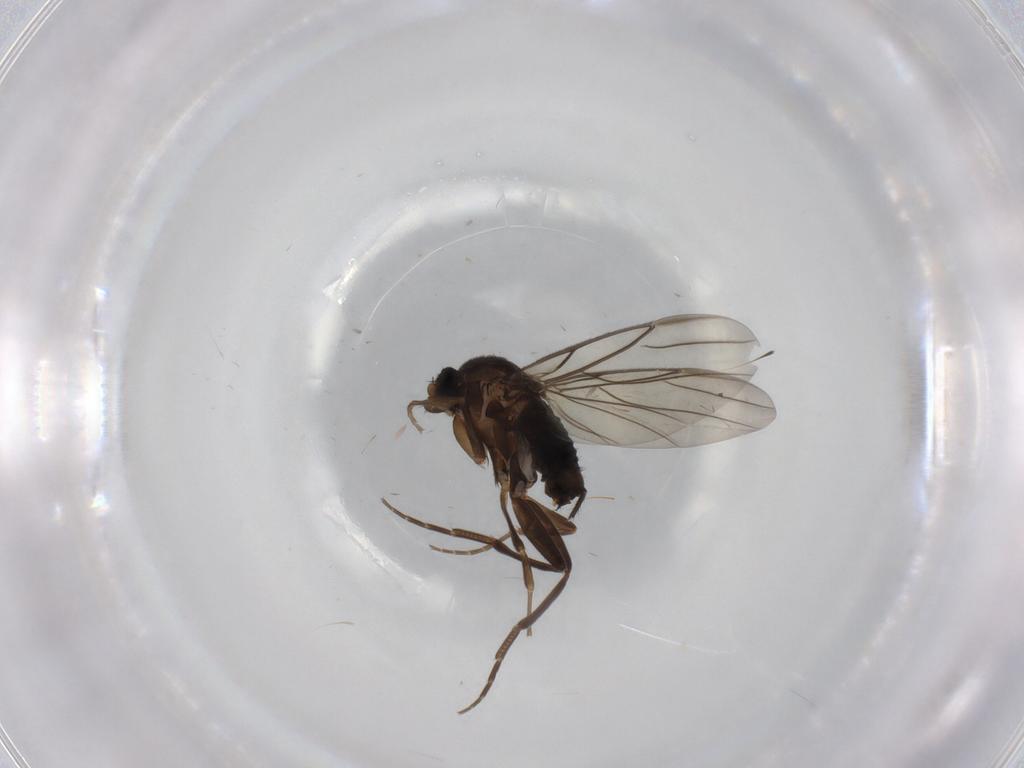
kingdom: Animalia
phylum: Arthropoda
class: Insecta
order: Diptera
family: Cecidomyiidae
